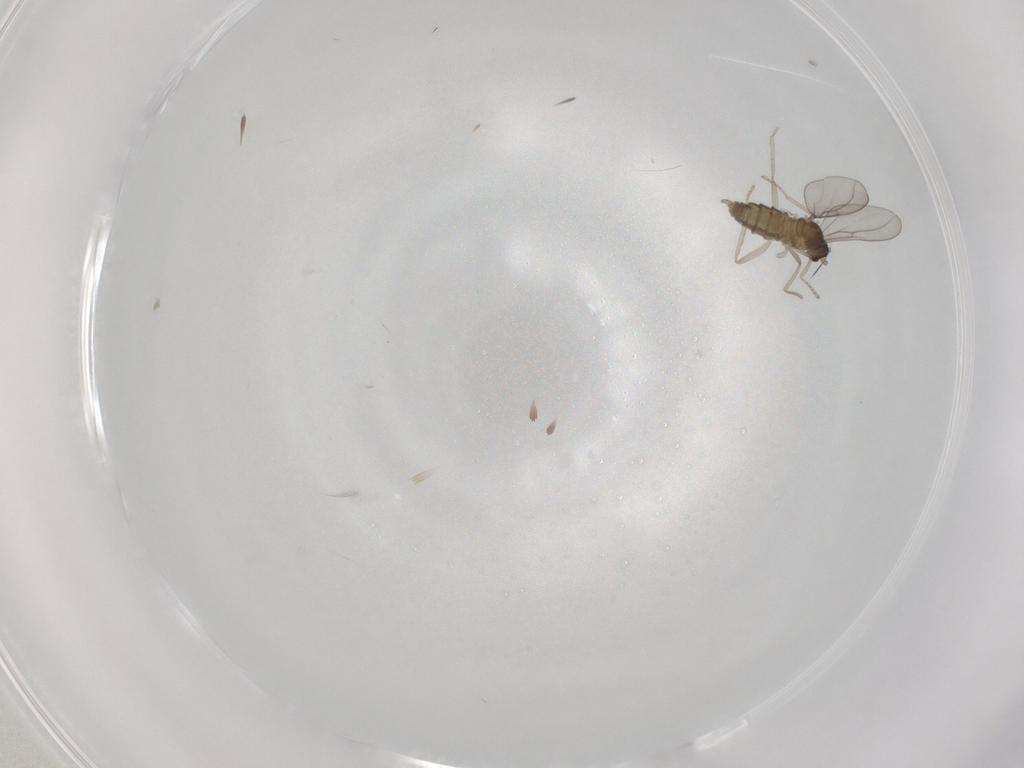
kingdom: Animalia
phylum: Arthropoda
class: Insecta
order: Diptera
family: Cecidomyiidae
